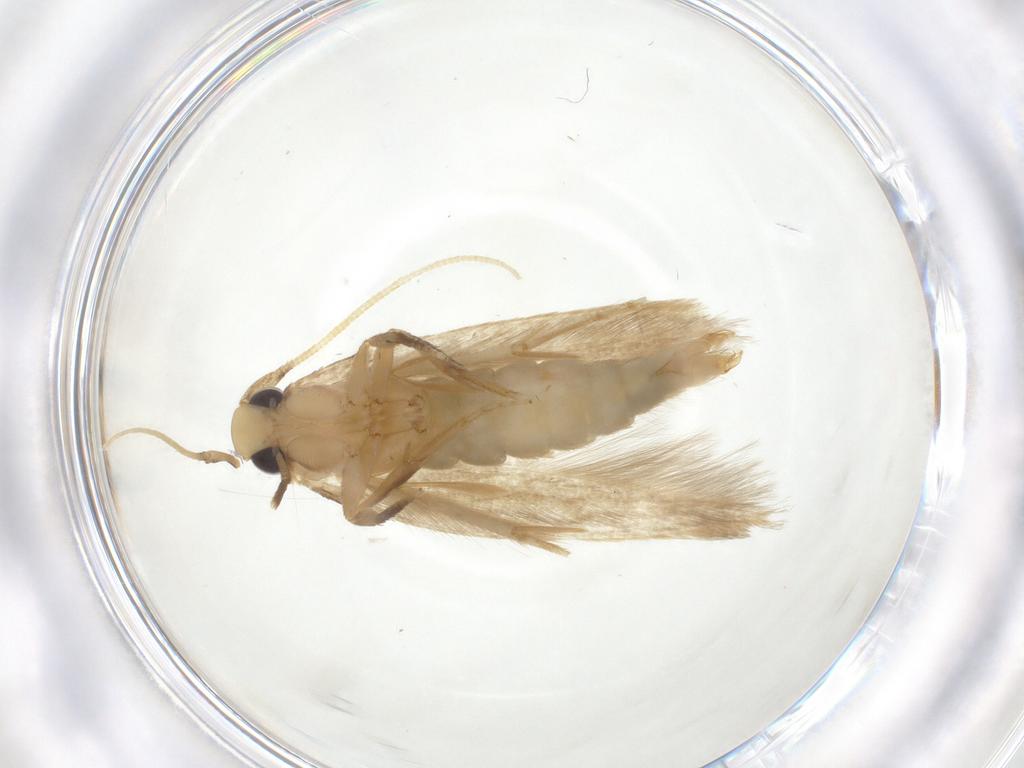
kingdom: Animalia
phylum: Arthropoda
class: Insecta
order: Lepidoptera
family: Tineidae
